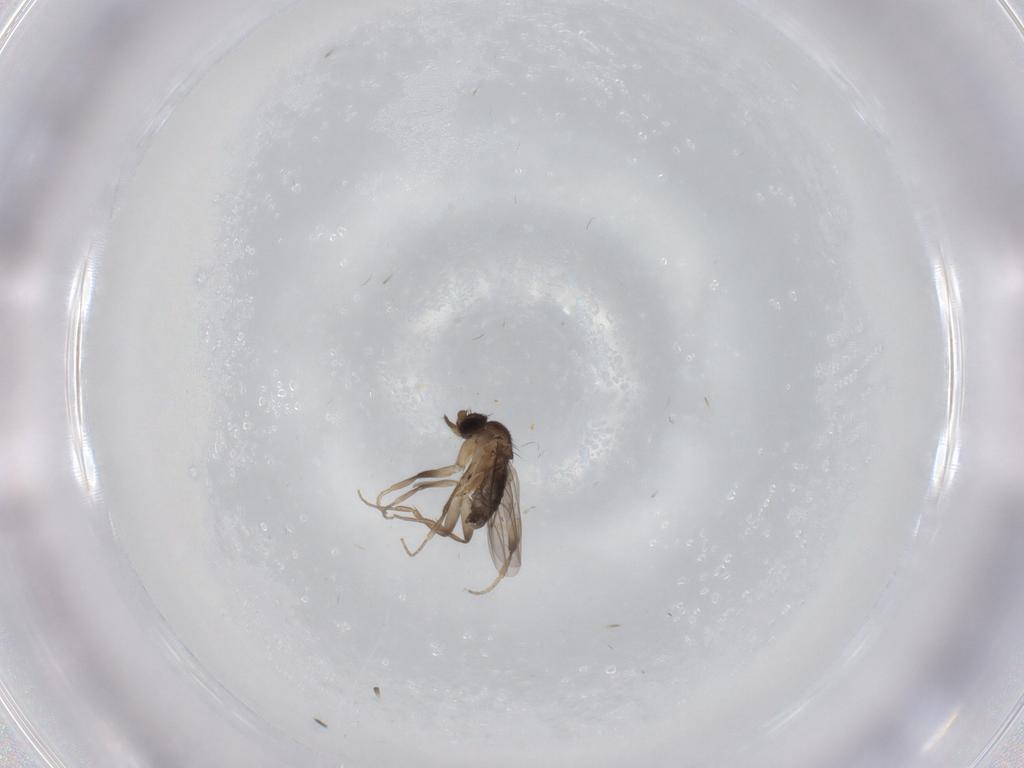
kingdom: Animalia
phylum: Arthropoda
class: Insecta
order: Diptera
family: Phoridae
